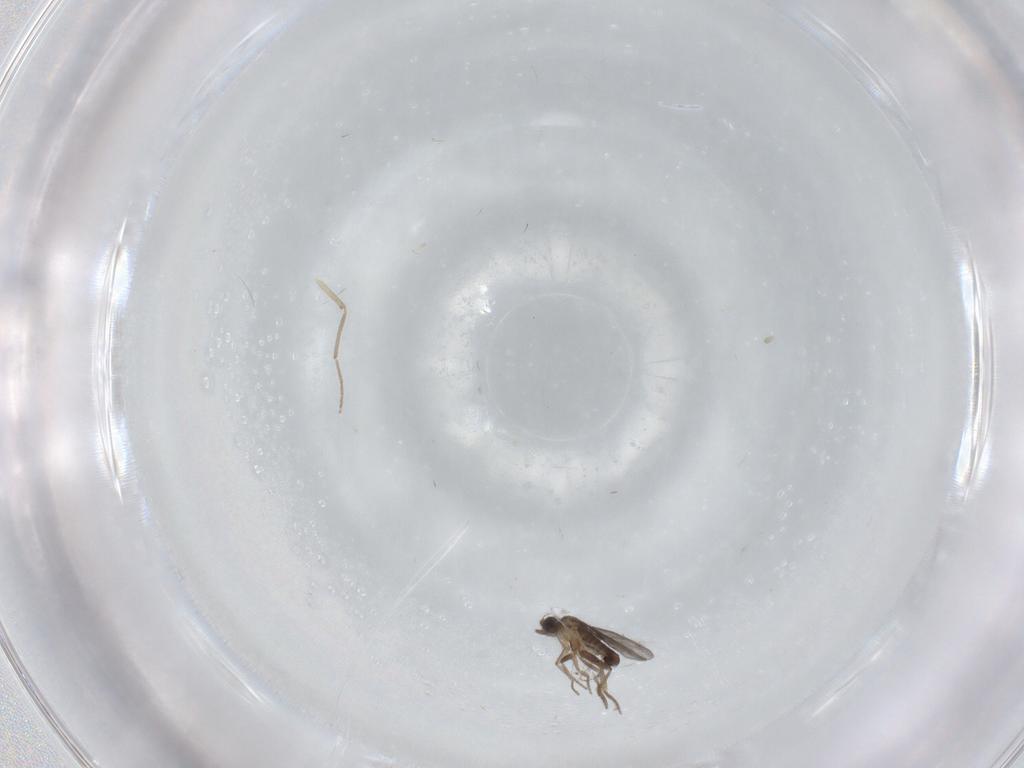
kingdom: Animalia
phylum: Arthropoda
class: Insecta
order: Diptera
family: Chironomidae
